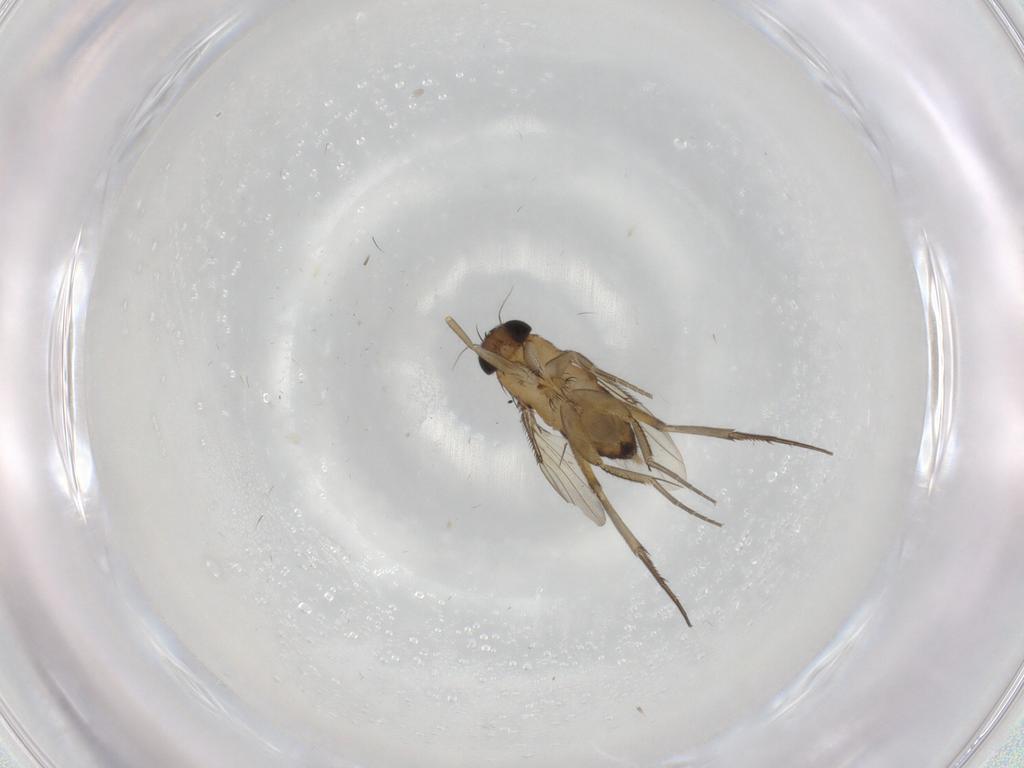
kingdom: Animalia
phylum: Arthropoda
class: Insecta
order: Diptera
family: Phoridae
